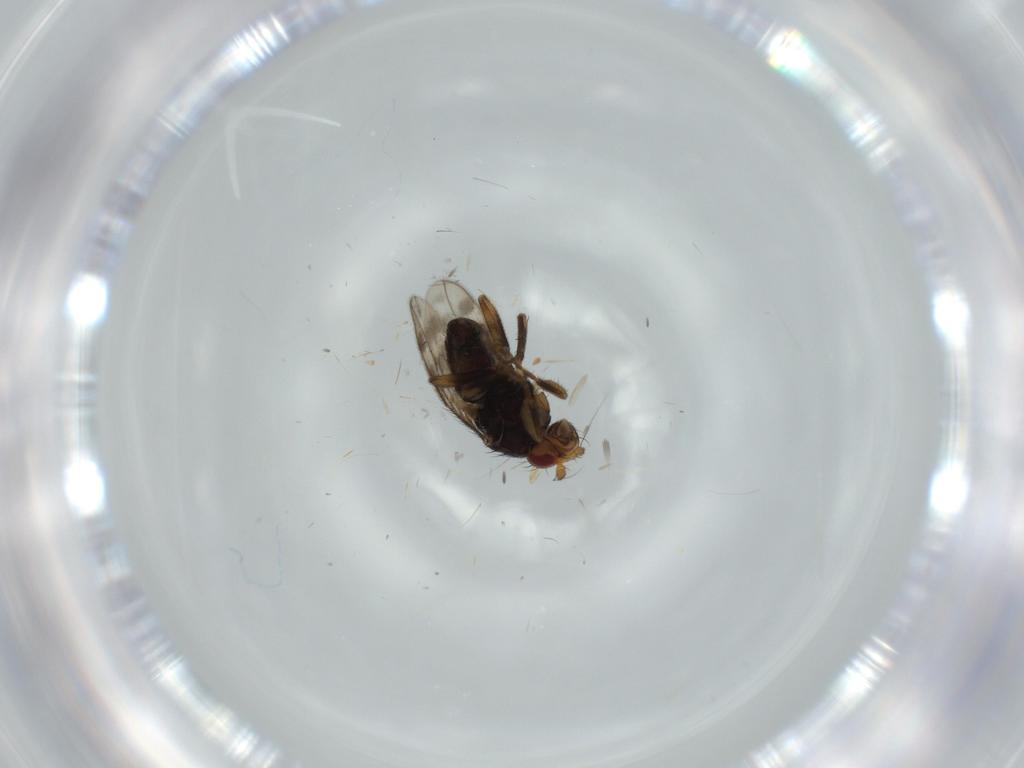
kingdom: Animalia
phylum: Arthropoda
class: Insecta
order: Diptera
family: Sphaeroceridae
